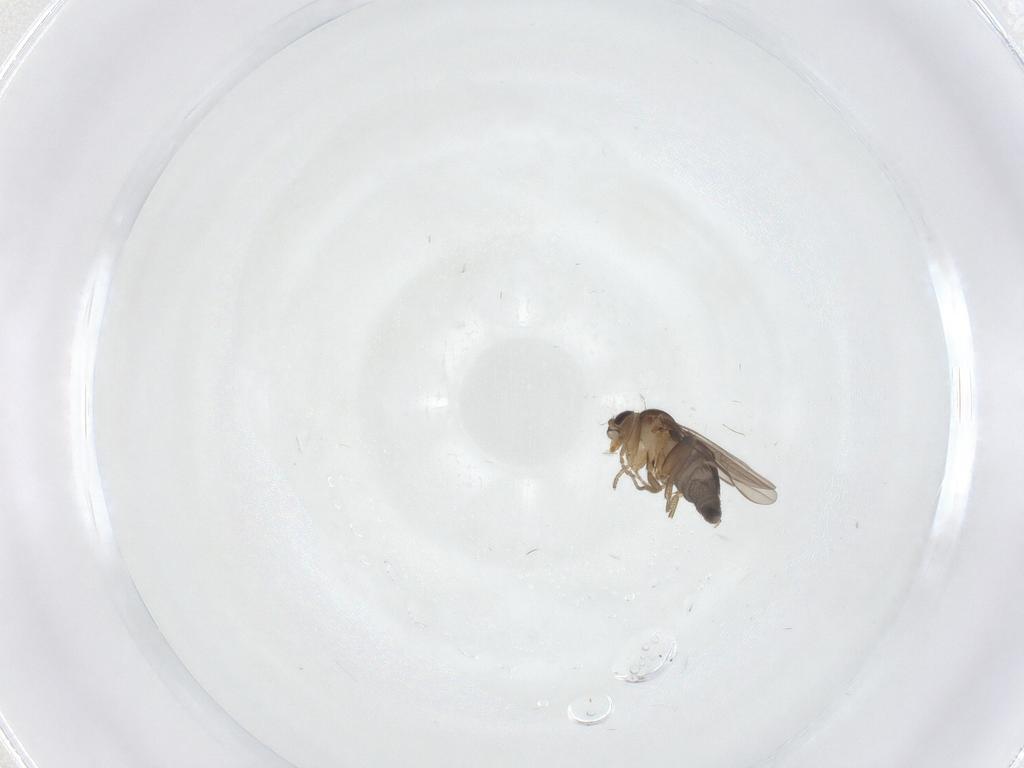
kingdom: Animalia
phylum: Arthropoda
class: Insecta
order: Diptera
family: Phoridae
